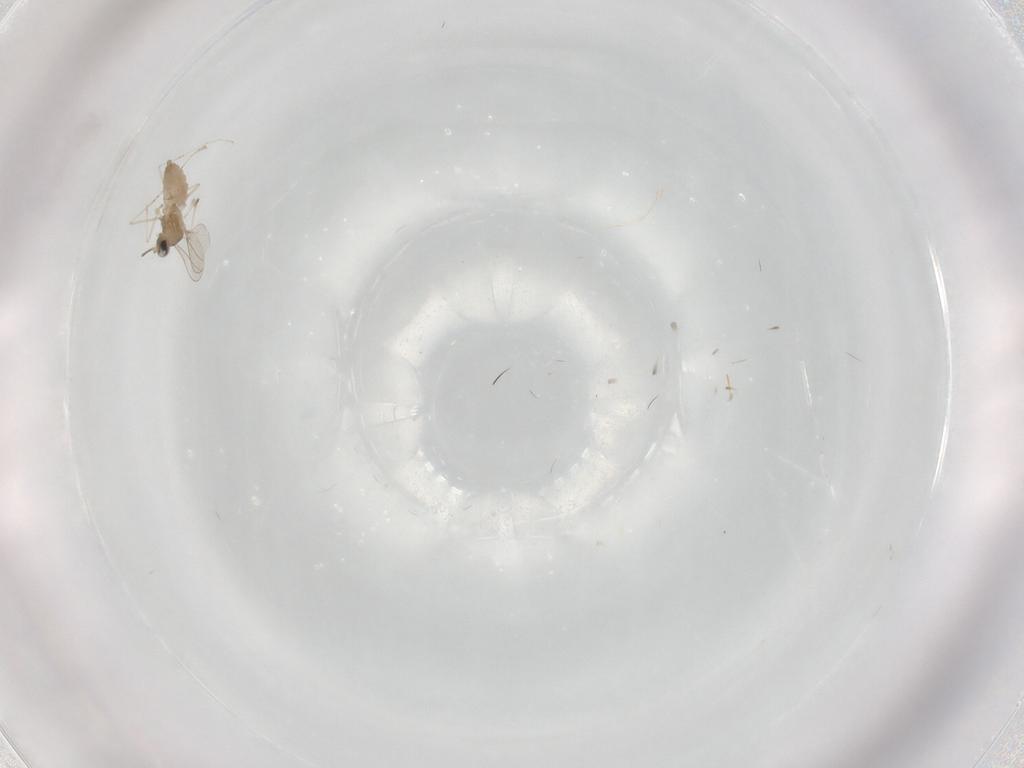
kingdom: Animalia
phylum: Arthropoda
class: Insecta
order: Diptera
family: Cecidomyiidae
